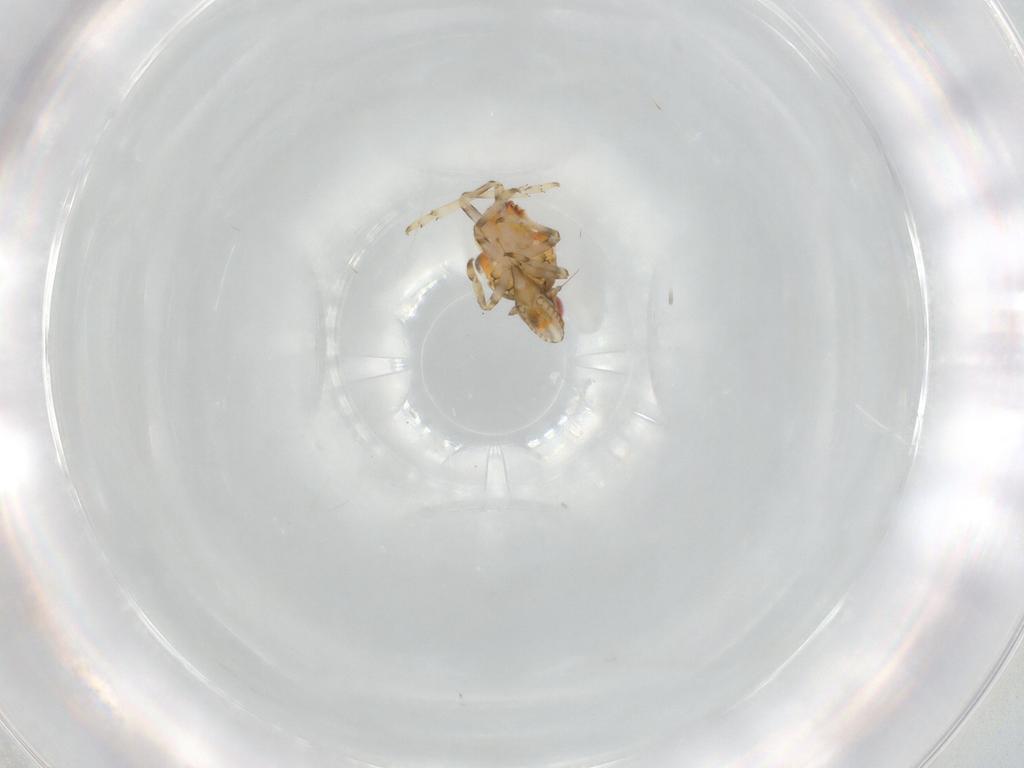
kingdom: Animalia
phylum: Arthropoda
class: Insecta
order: Hemiptera
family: Tropiduchidae
